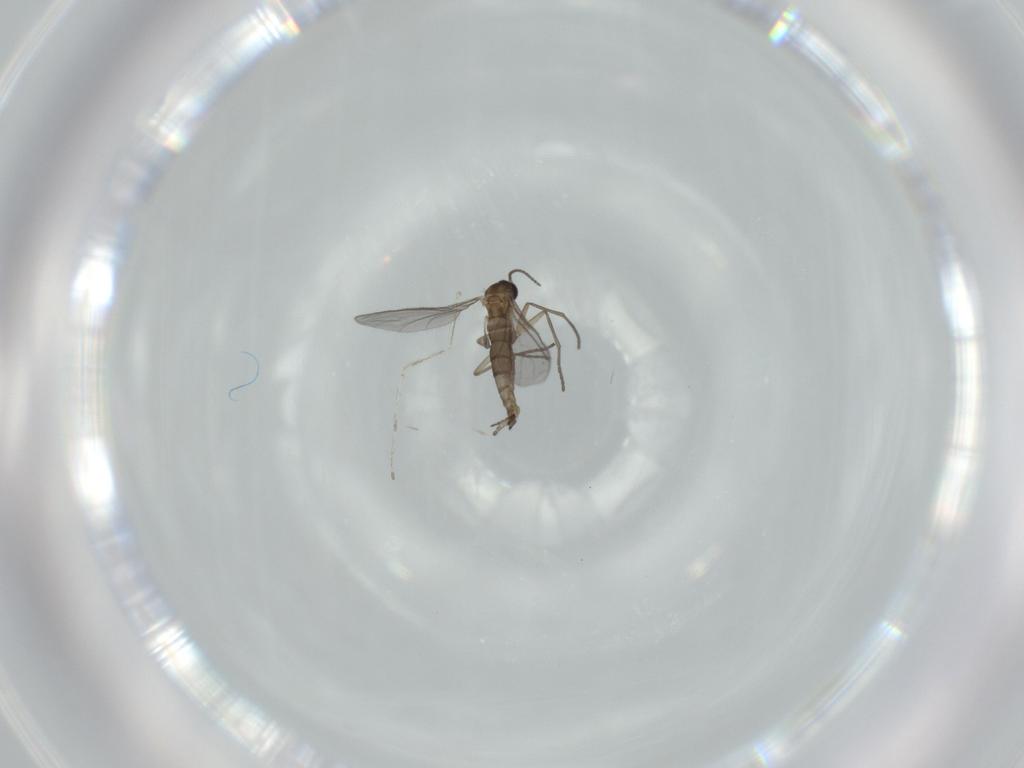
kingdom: Animalia
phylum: Arthropoda
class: Insecta
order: Diptera
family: Sciaridae
